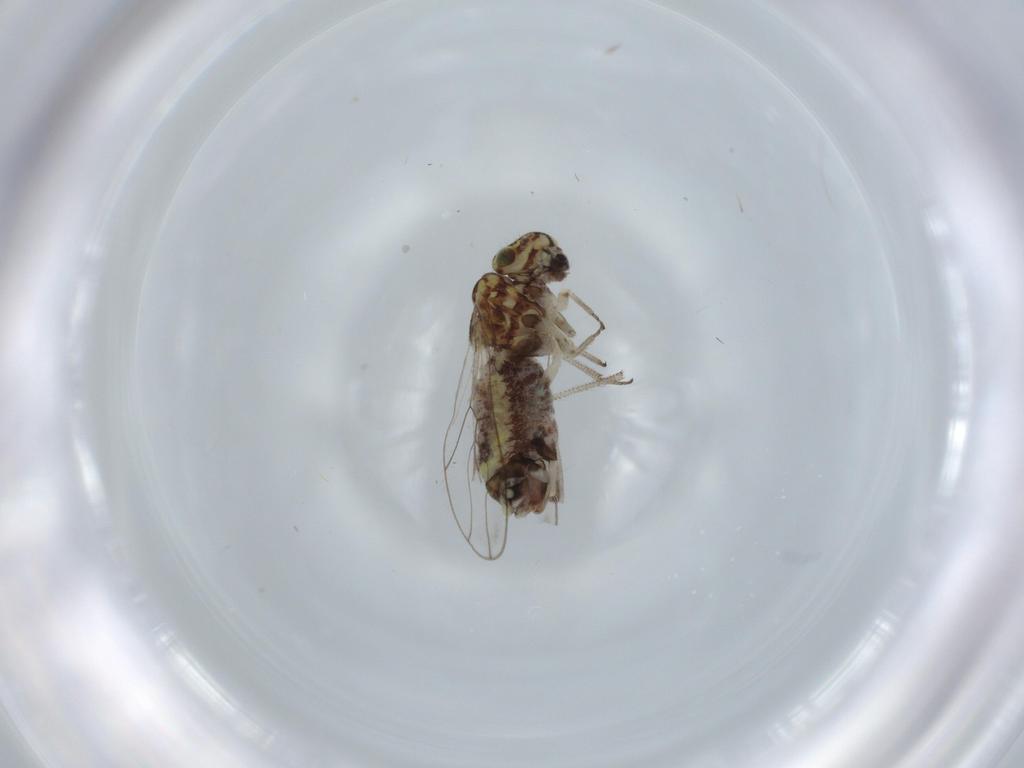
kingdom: Animalia
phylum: Arthropoda
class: Insecta
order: Psocodea
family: Psocidae
